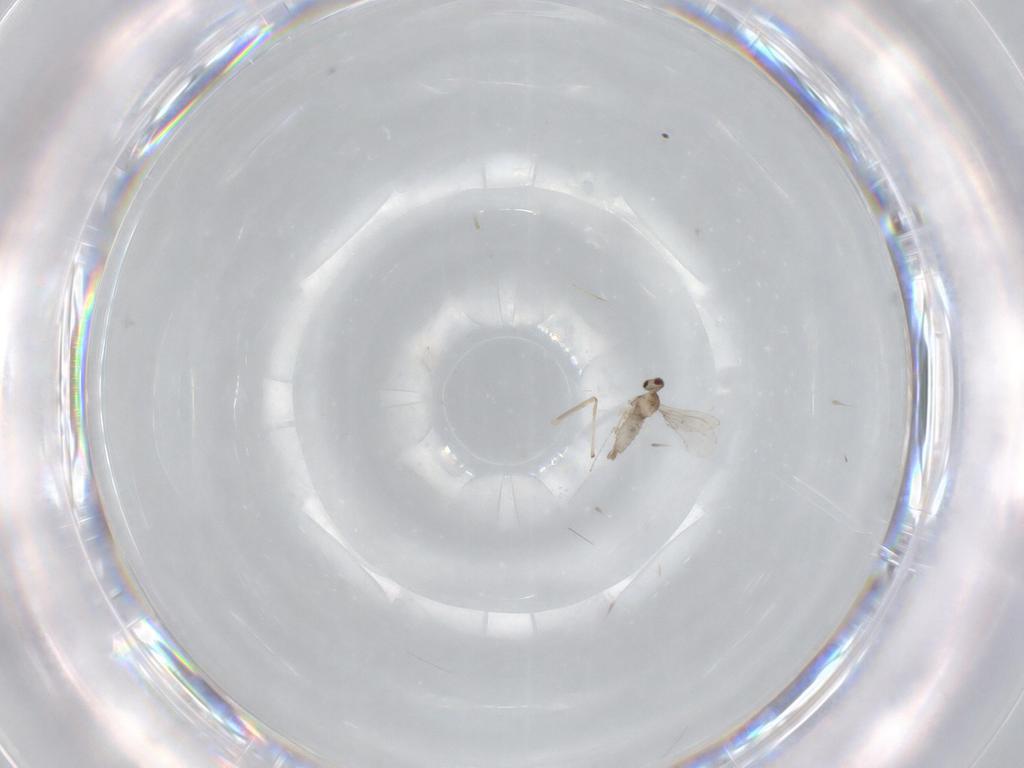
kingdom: Animalia
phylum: Arthropoda
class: Insecta
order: Diptera
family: Cecidomyiidae
